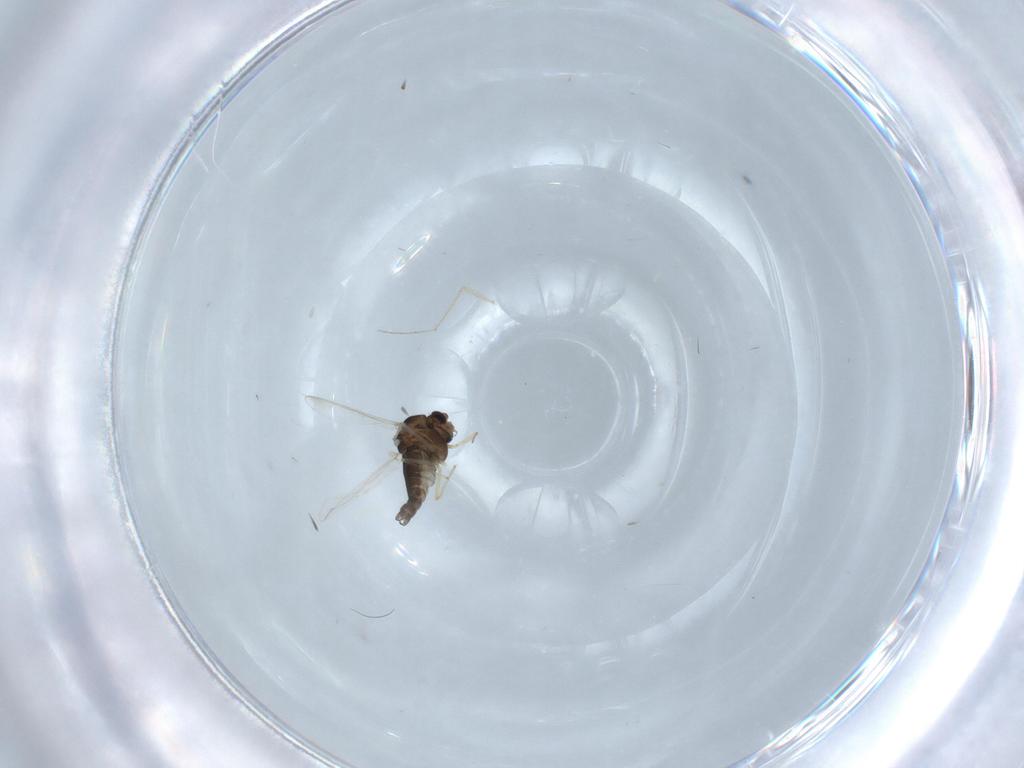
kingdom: Animalia
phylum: Arthropoda
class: Insecta
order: Diptera
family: Chironomidae
